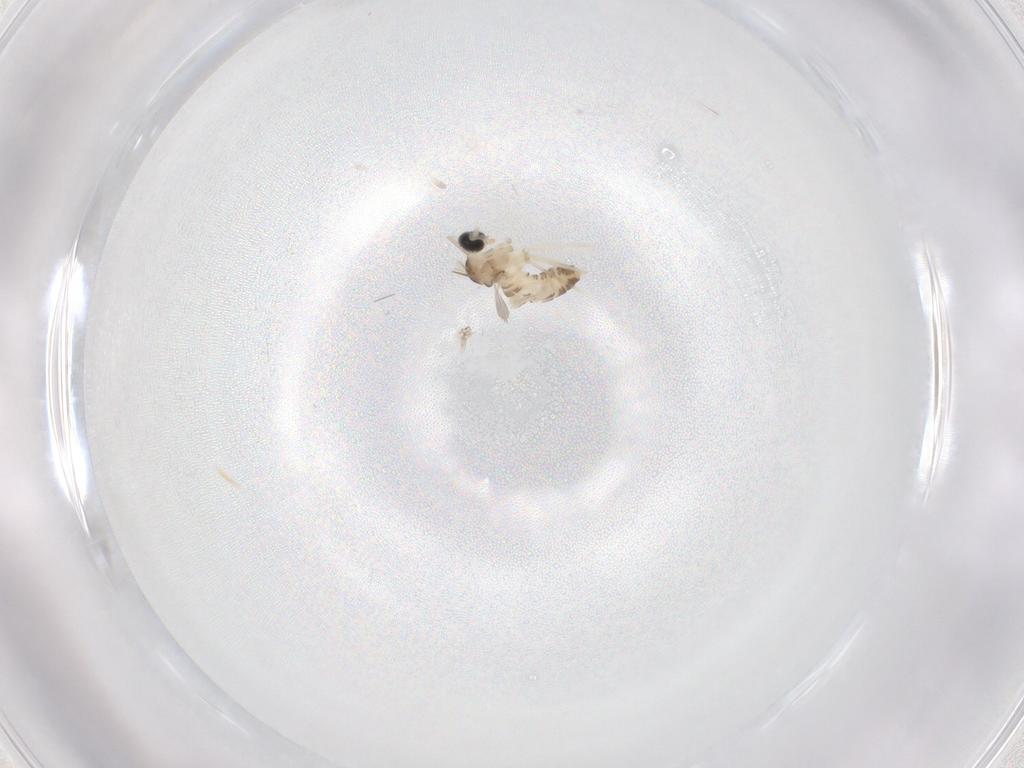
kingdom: Animalia
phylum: Arthropoda
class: Insecta
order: Diptera
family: Cecidomyiidae
